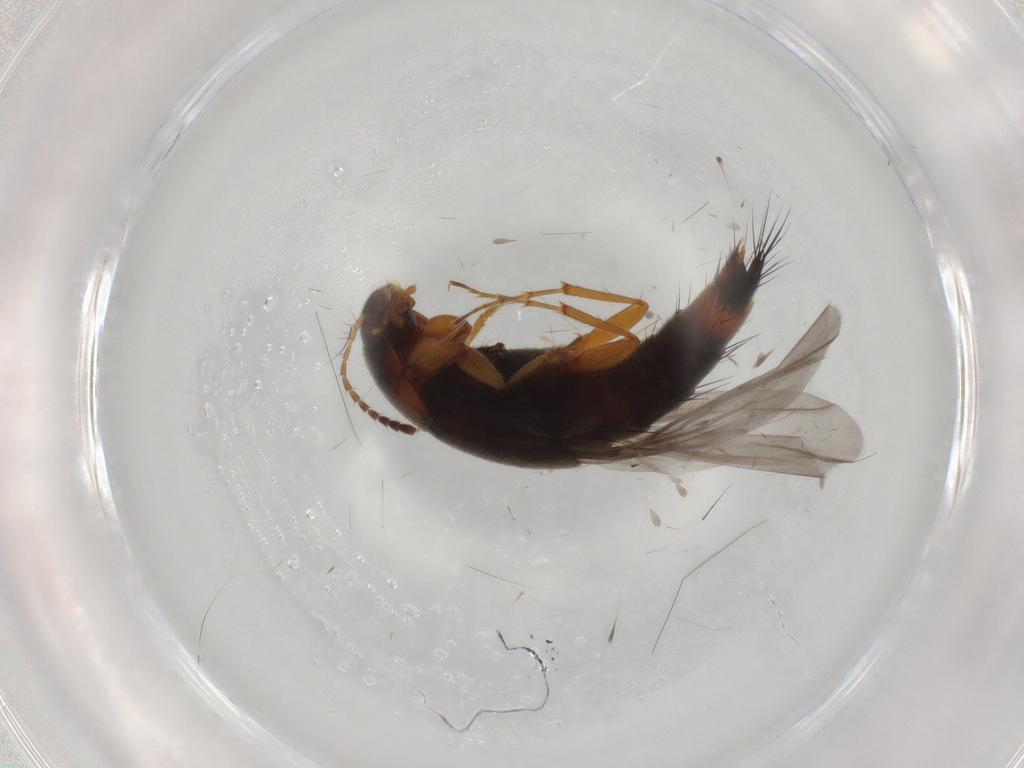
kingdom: Animalia
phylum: Arthropoda
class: Insecta
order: Coleoptera
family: Staphylinidae
